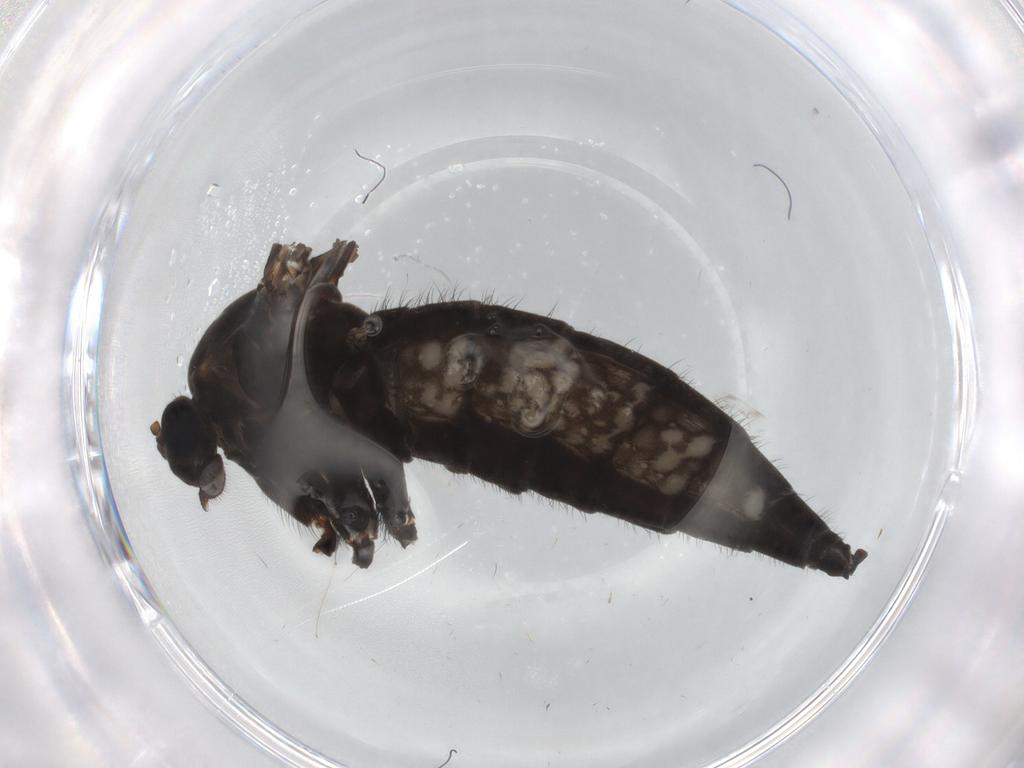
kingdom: Animalia
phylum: Arthropoda
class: Insecta
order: Diptera
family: Sciaridae
